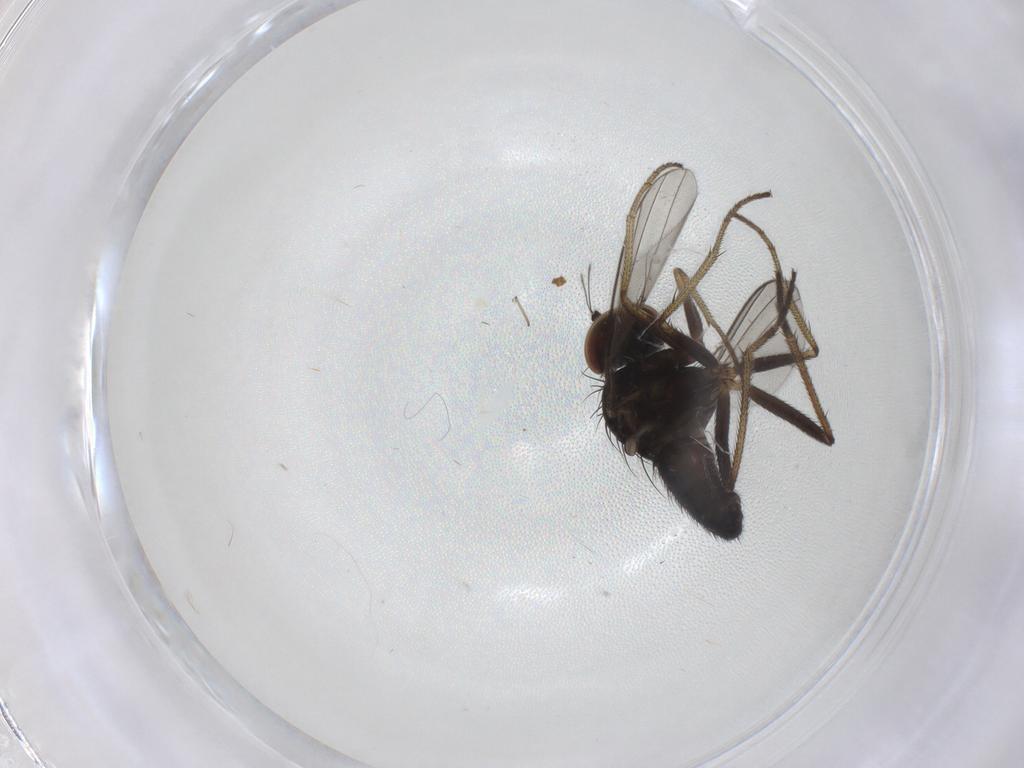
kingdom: Animalia
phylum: Arthropoda
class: Insecta
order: Diptera
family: Dolichopodidae
